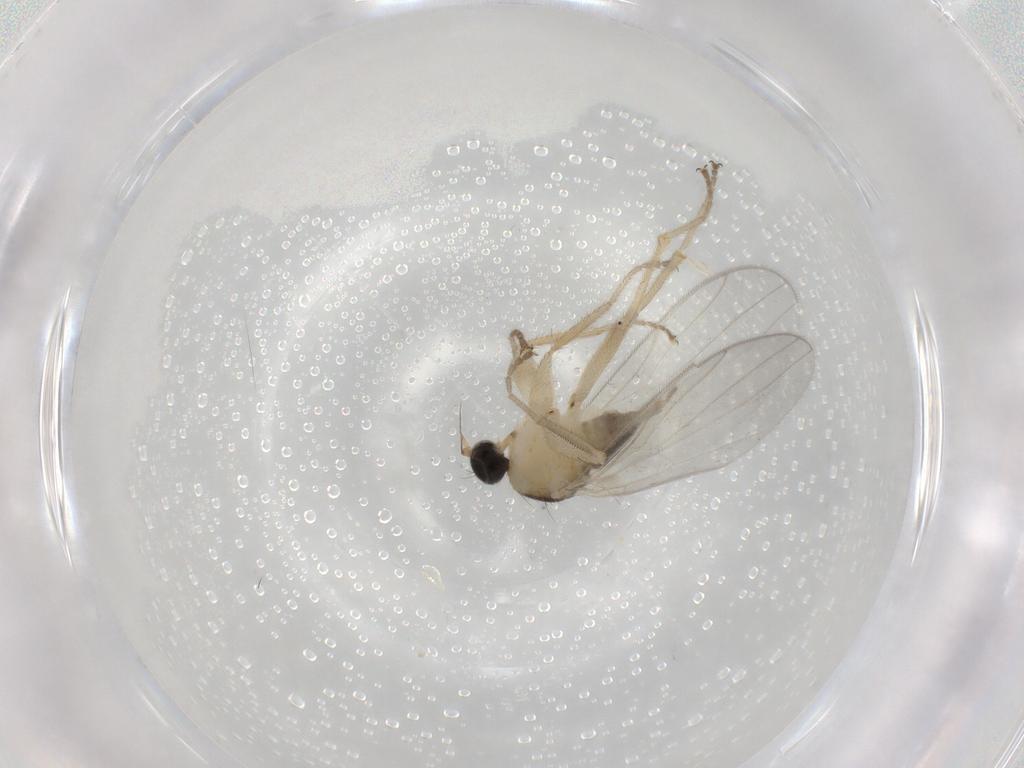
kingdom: Animalia
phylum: Arthropoda
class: Insecta
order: Diptera
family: Hybotidae
